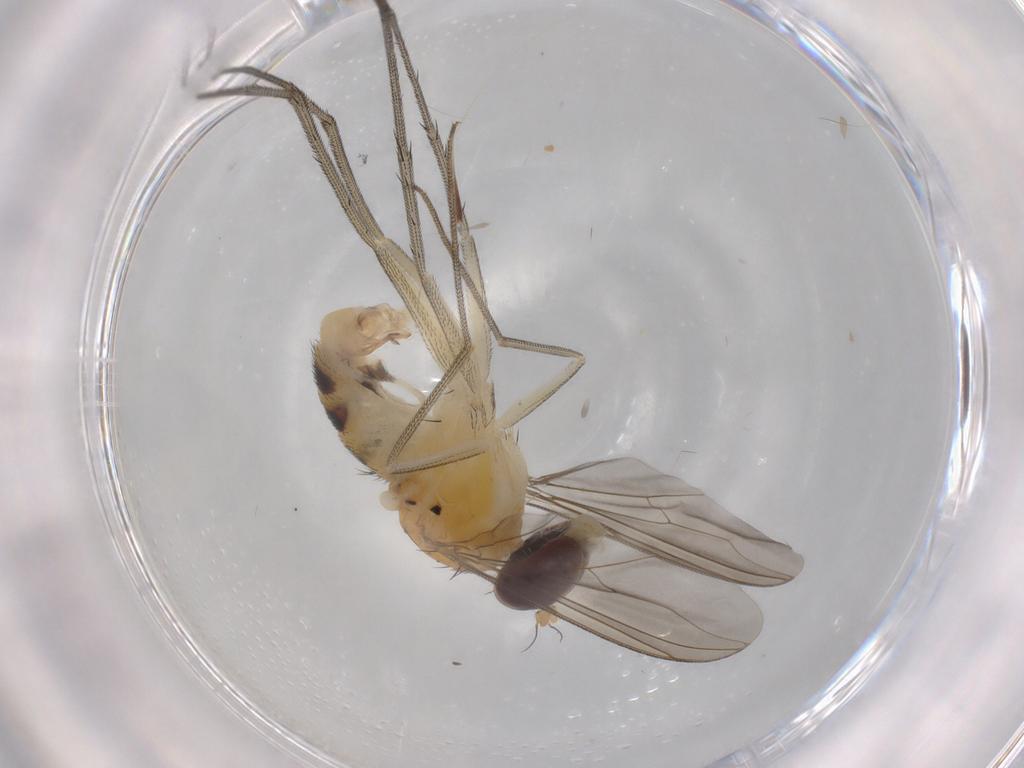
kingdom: Animalia
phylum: Arthropoda
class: Insecta
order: Diptera
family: Dolichopodidae
